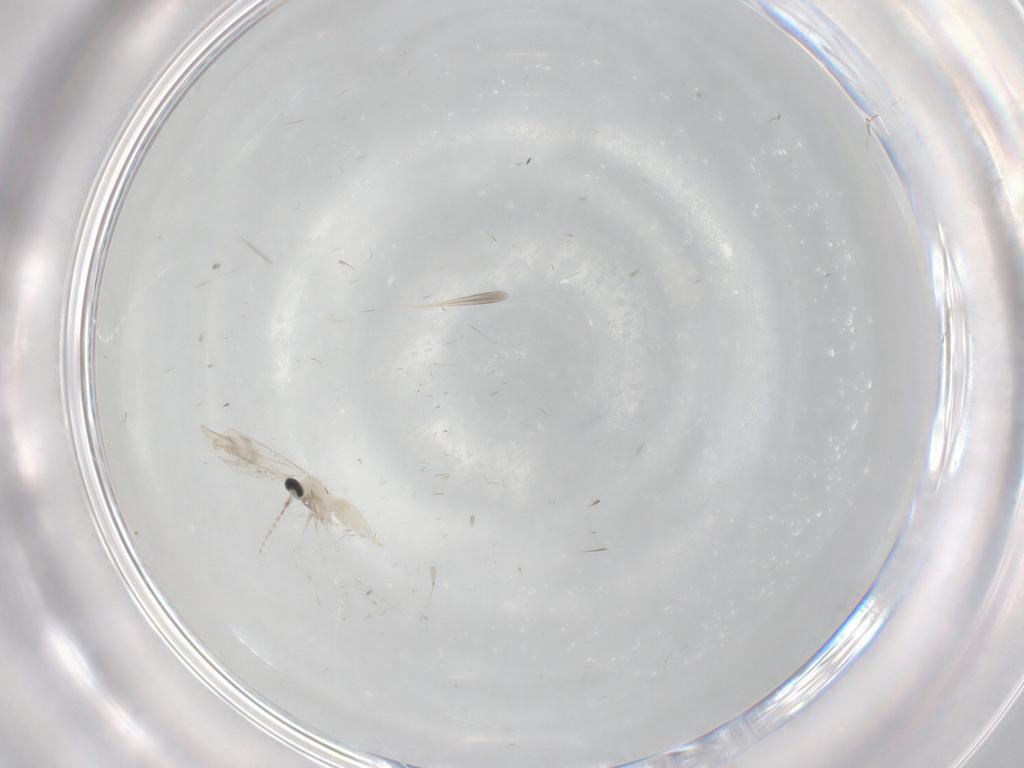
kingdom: Animalia
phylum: Arthropoda
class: Insecta
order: Diptera
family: Cecidomyiidae
